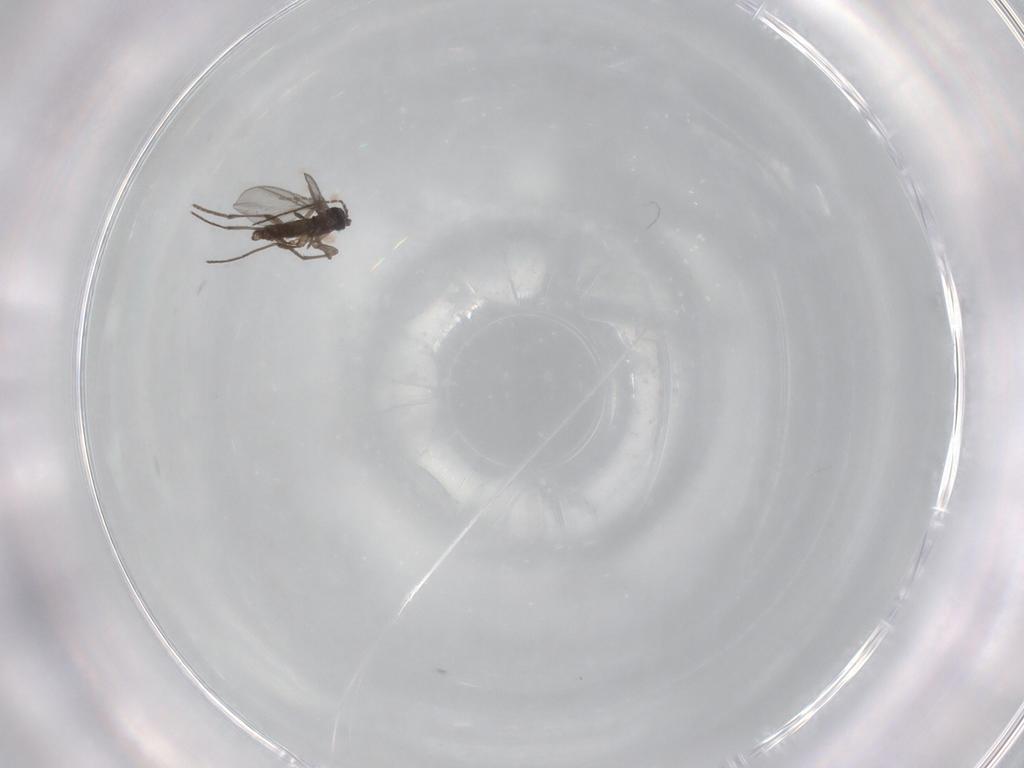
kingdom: Animalia
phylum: Arthropoda
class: Insecta
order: Diptera
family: Sciaridae
